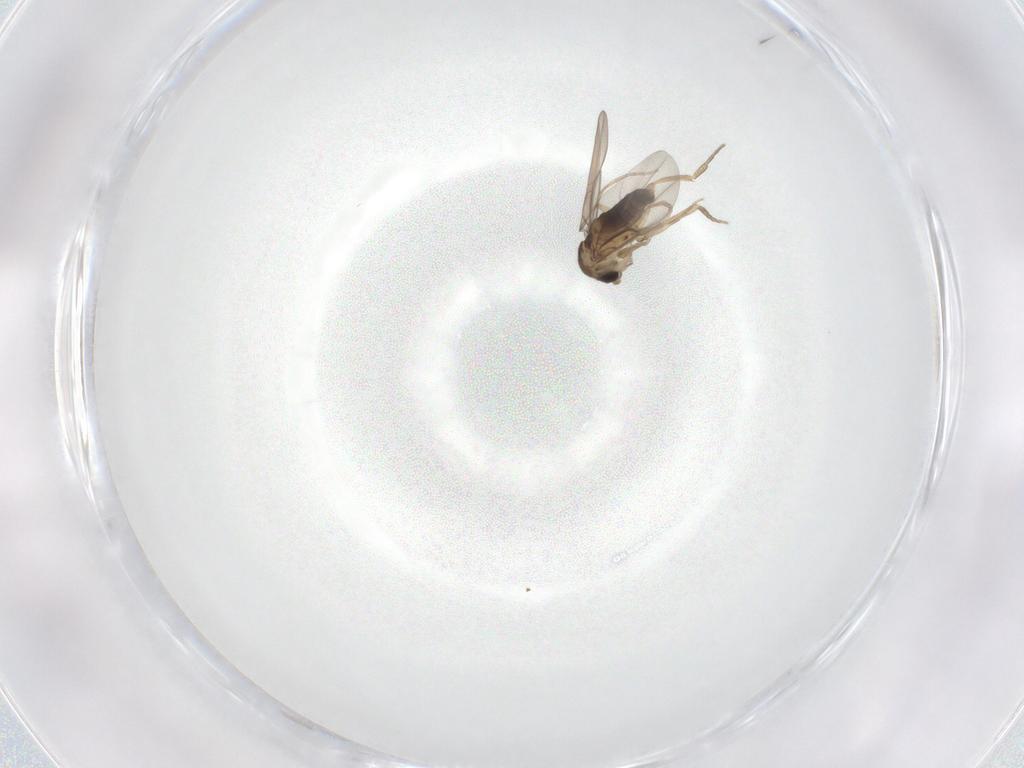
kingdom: Animalia
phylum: Arthropoda
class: Insecta
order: Diptera
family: Phoridae
